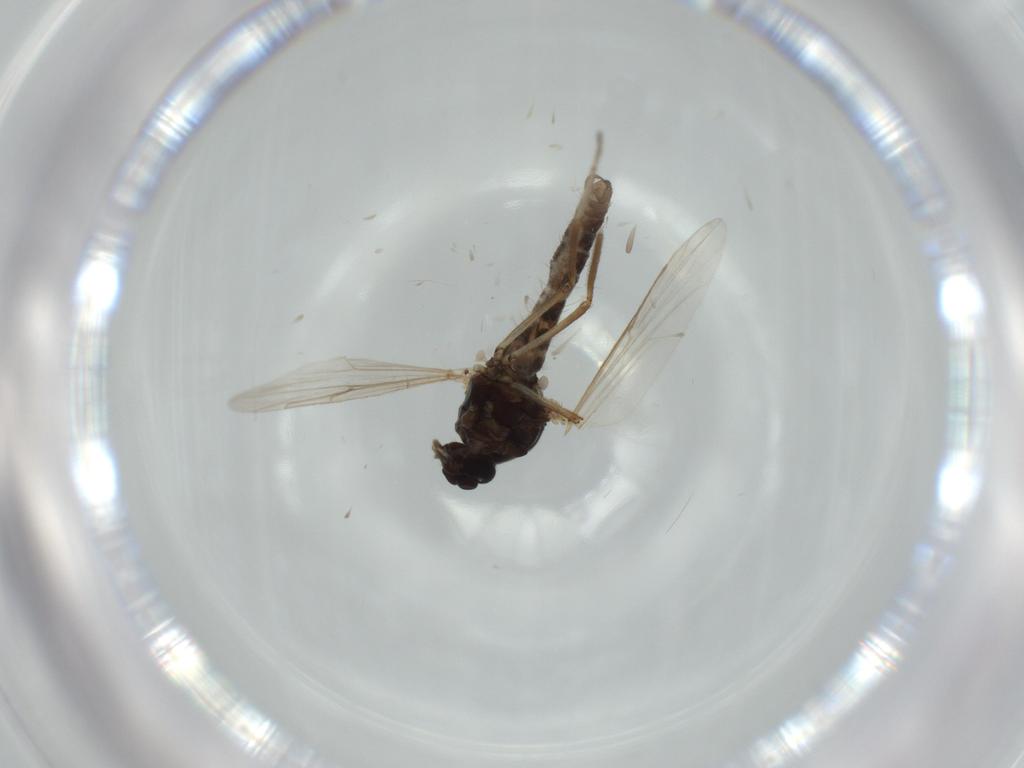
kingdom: Animalia
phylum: Arthropoda
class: Insecta
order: Diptera
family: Ceratopogonidae
